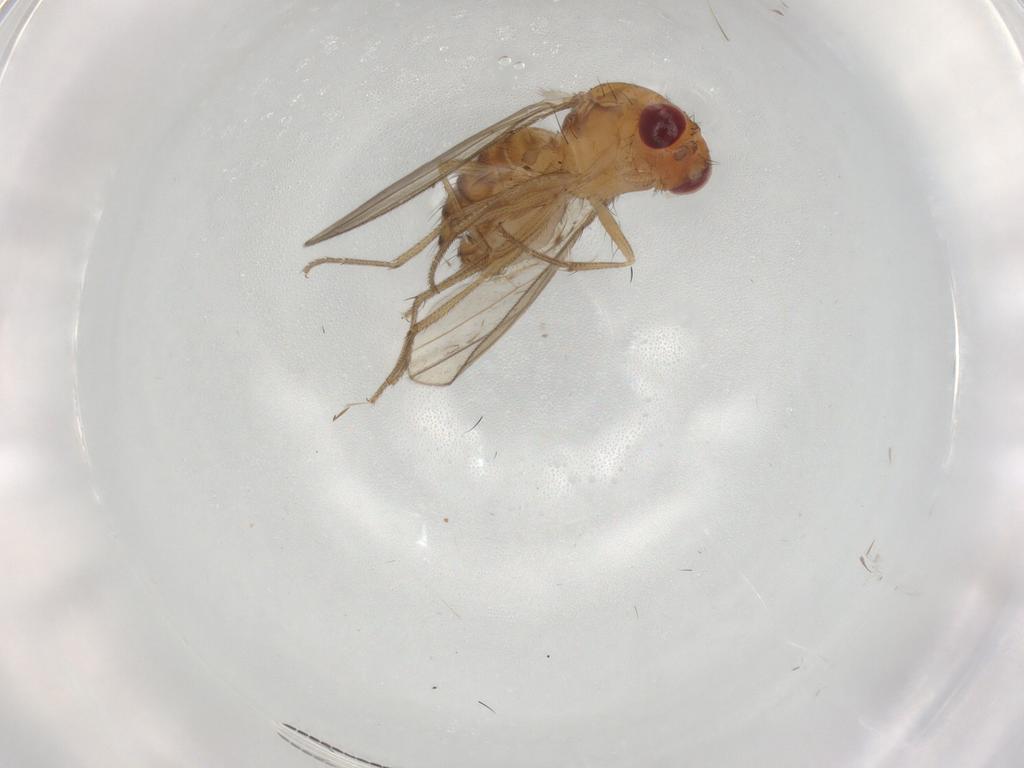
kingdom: Animalia
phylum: Arthropoda
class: Insecta
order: Diptera
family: Drosophilidae
